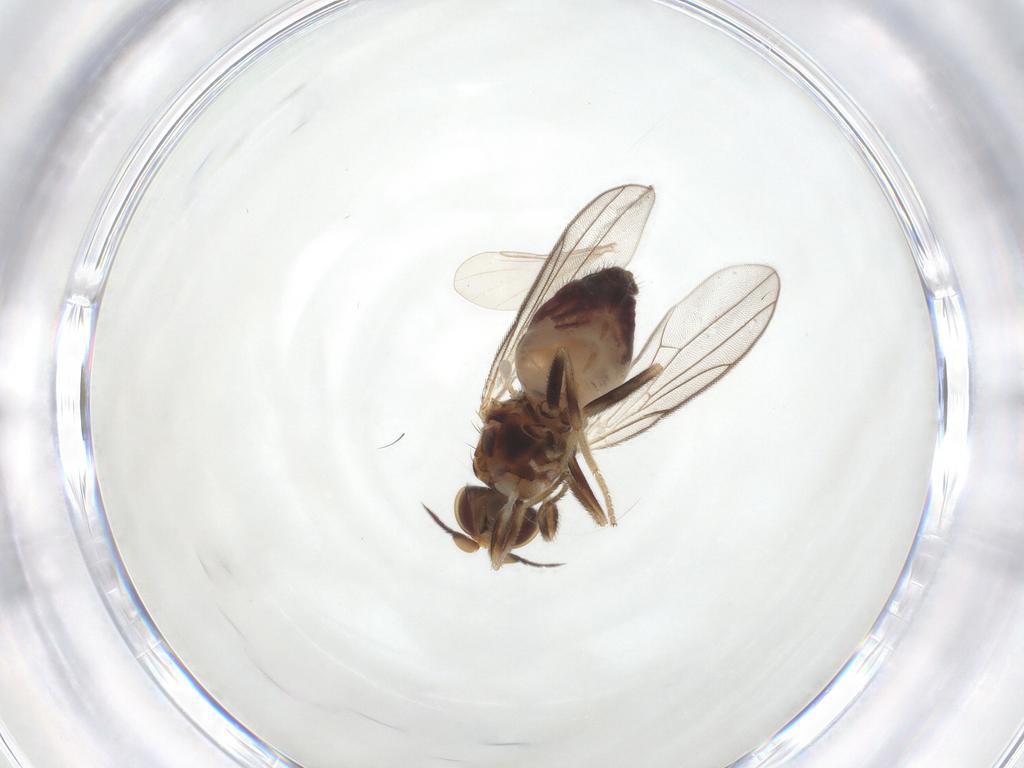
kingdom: Animalia
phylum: Arthropoda
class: Insecta
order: Diptera
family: Chloropidae
